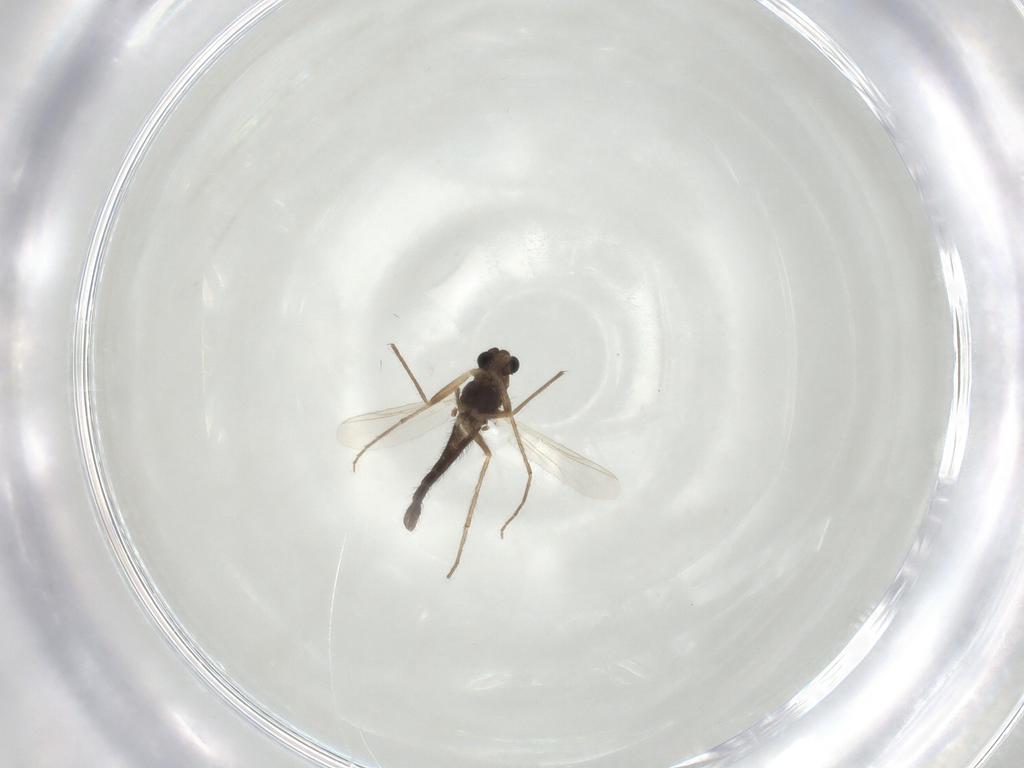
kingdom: Animalia
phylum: Arthropoda
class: Insecta
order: Diptera
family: Chironomidae
